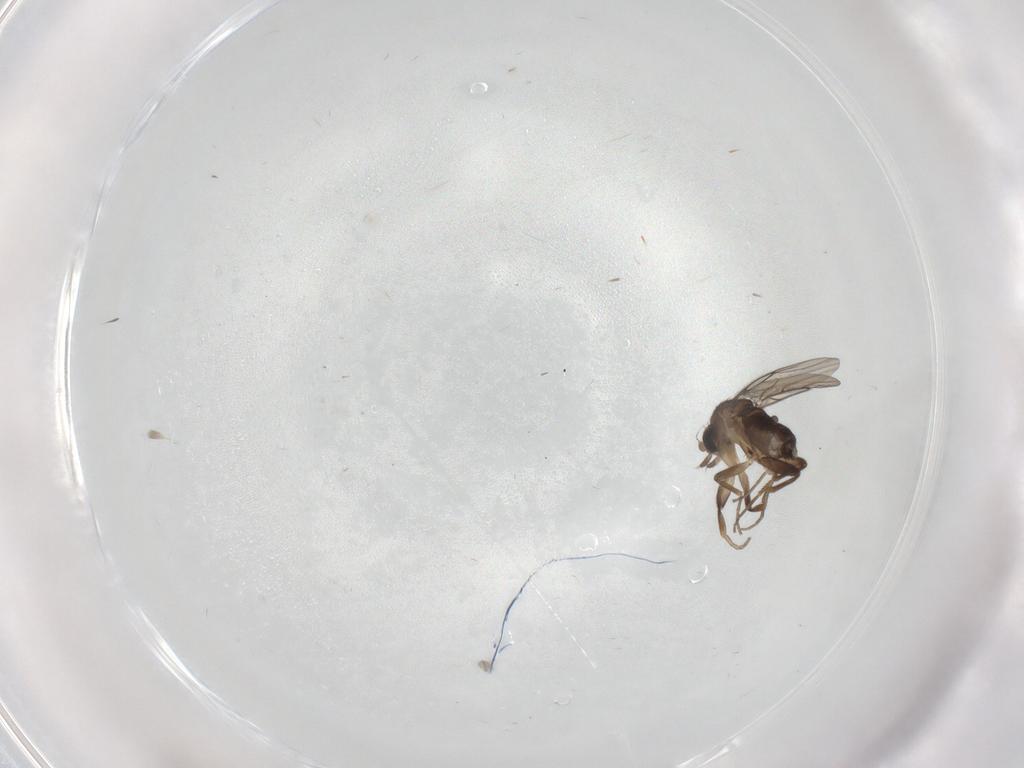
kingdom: Animalia
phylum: Arthropoda
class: Insecta
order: Diptera
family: Sciaridae
